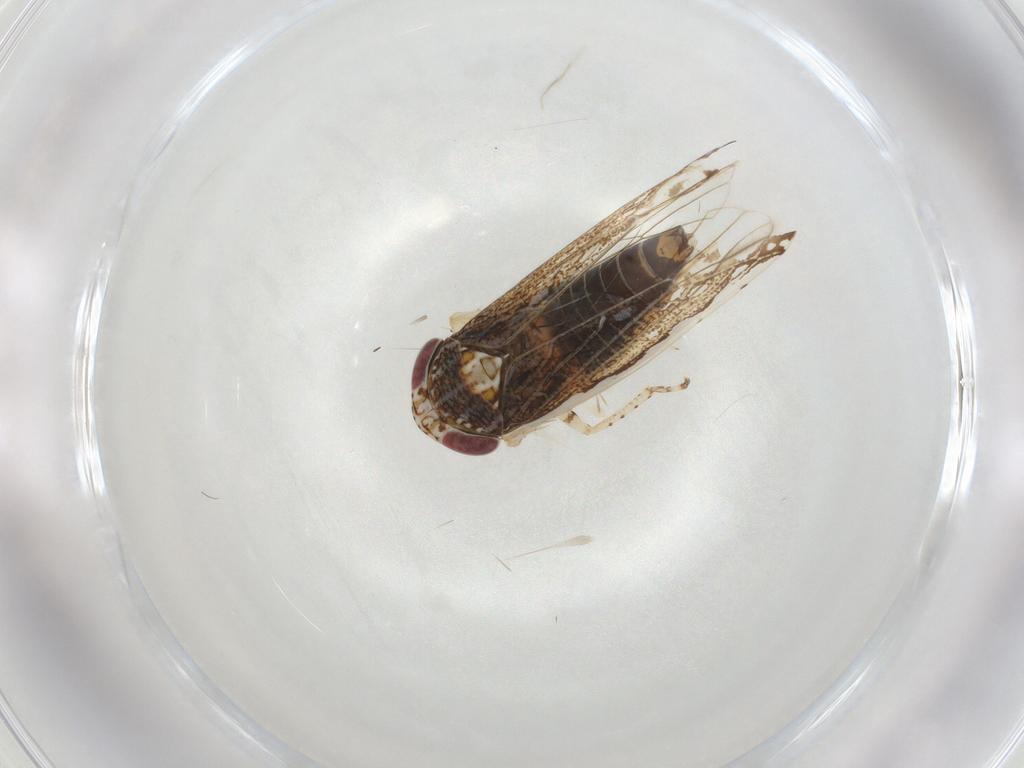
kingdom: Animalia
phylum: Arthropoda
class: Insecta
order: Hemiptera
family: Cicadellidae
